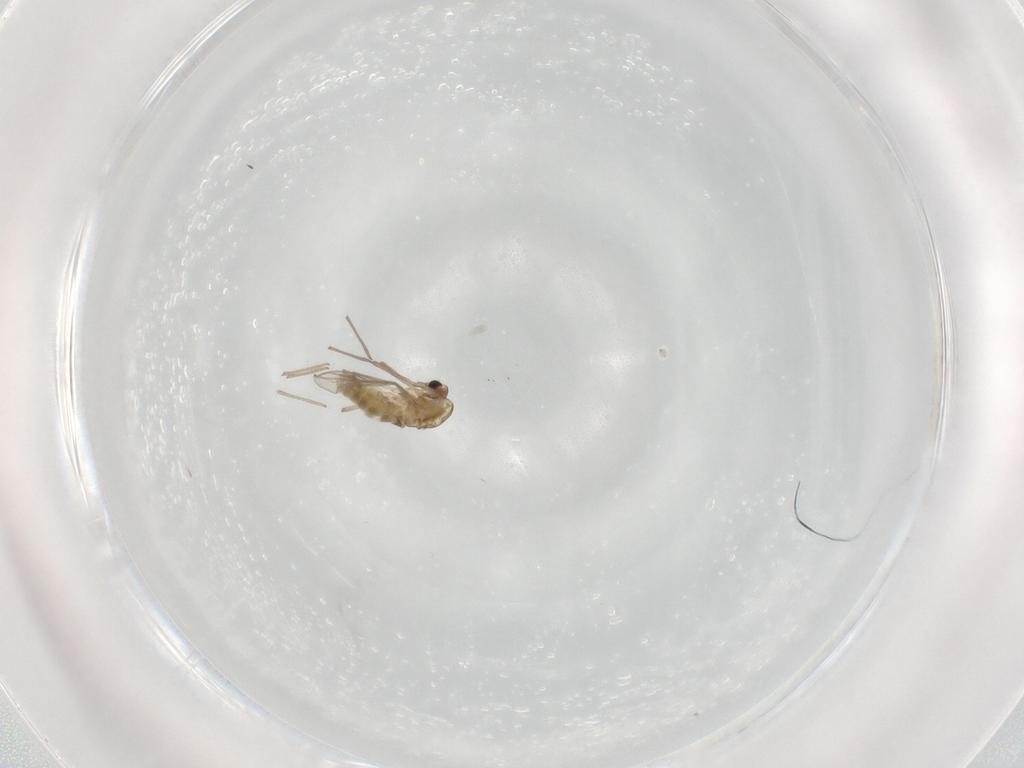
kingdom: Animalia
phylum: Arthropoda
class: Insecta
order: Diptera
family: Chironomidae
